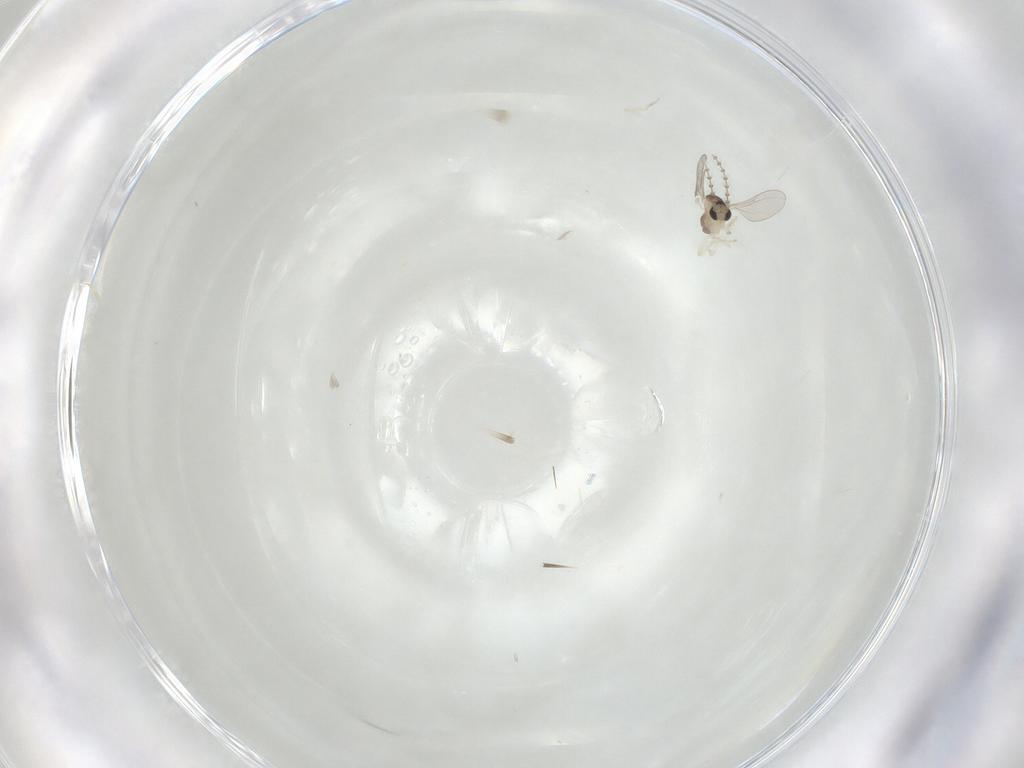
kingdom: Animalia
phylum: Arthropoda
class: Insecta
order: Diptera
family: Cecidomyiidae
